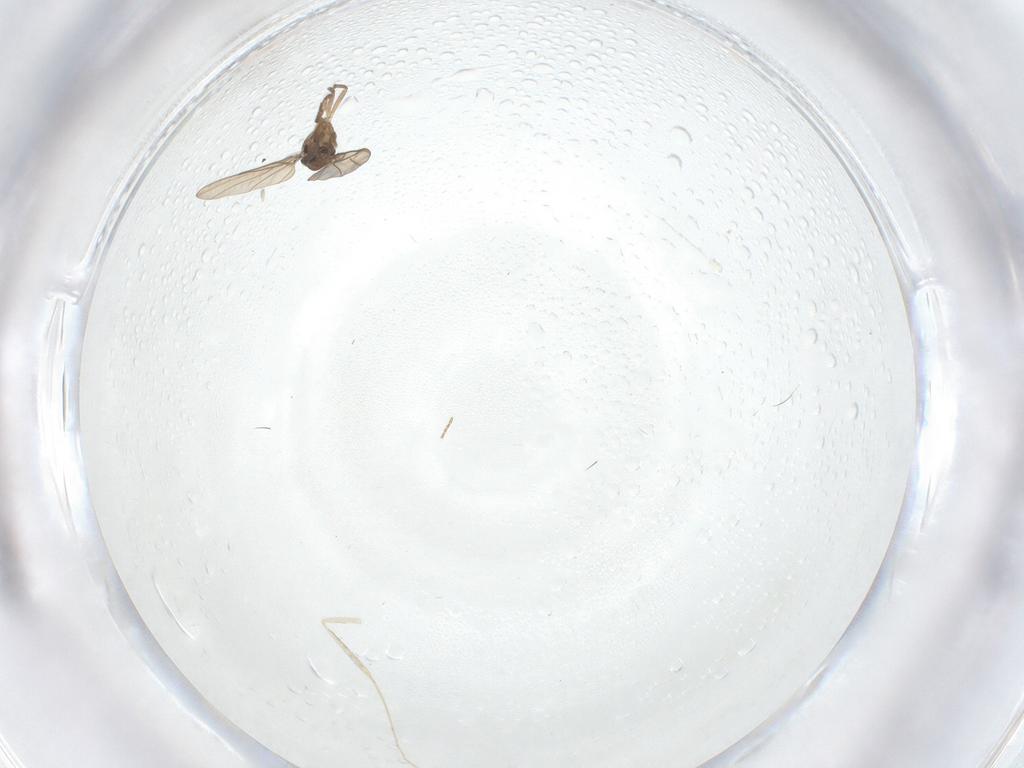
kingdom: Animalia
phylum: Arthropoda
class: Insecta
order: Diptera
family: Phoridae
